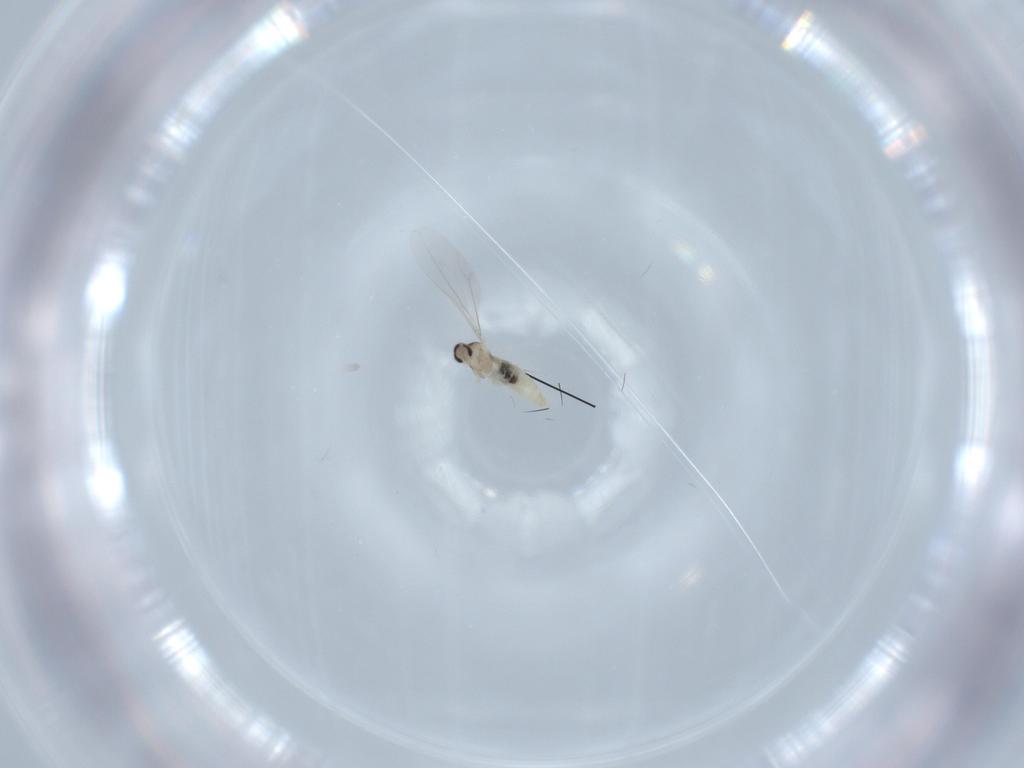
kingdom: Animalia
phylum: Arthropoda
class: Insecta
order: Diptera
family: Cecidomyiidae
